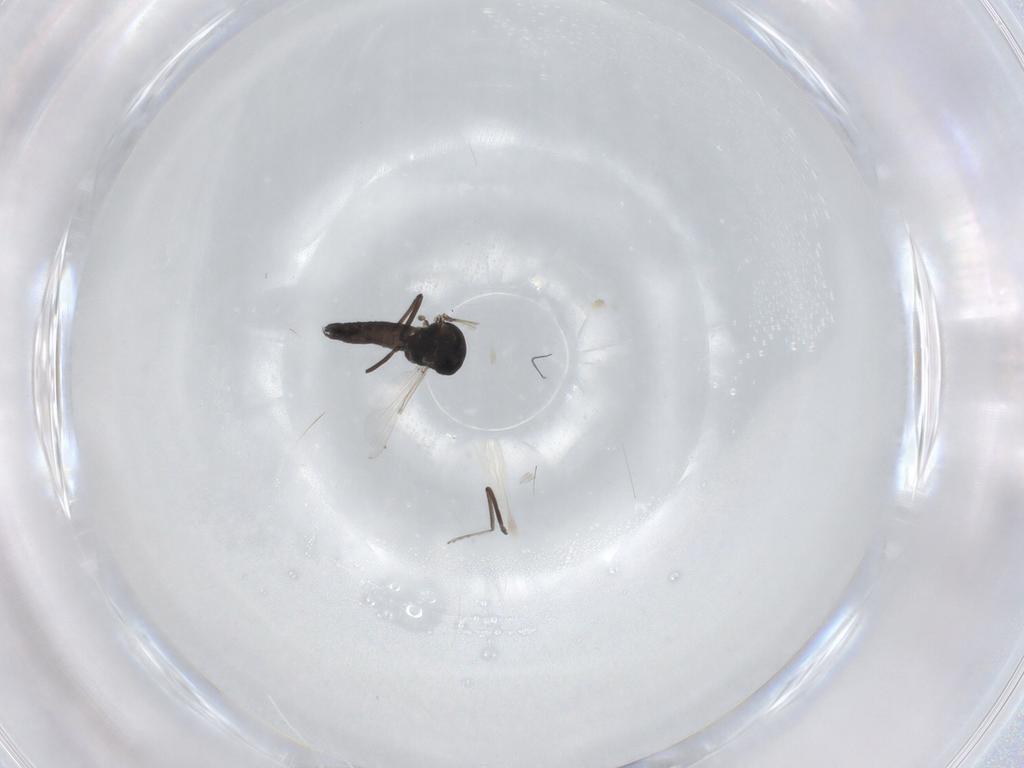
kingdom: Animalia
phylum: Arthropoda
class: Insecta
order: Diptera
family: Ceratopogonidae
